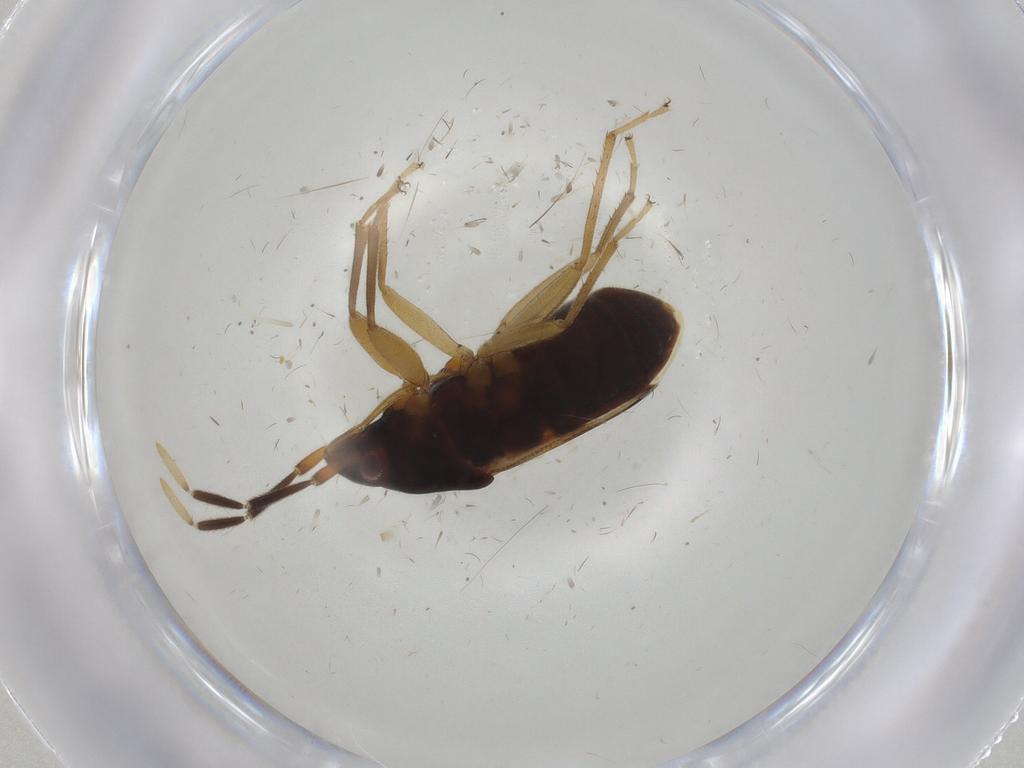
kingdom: Animalia
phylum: Arthropoda
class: Insecta
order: Hemiptera
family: Rhyparochromidae
